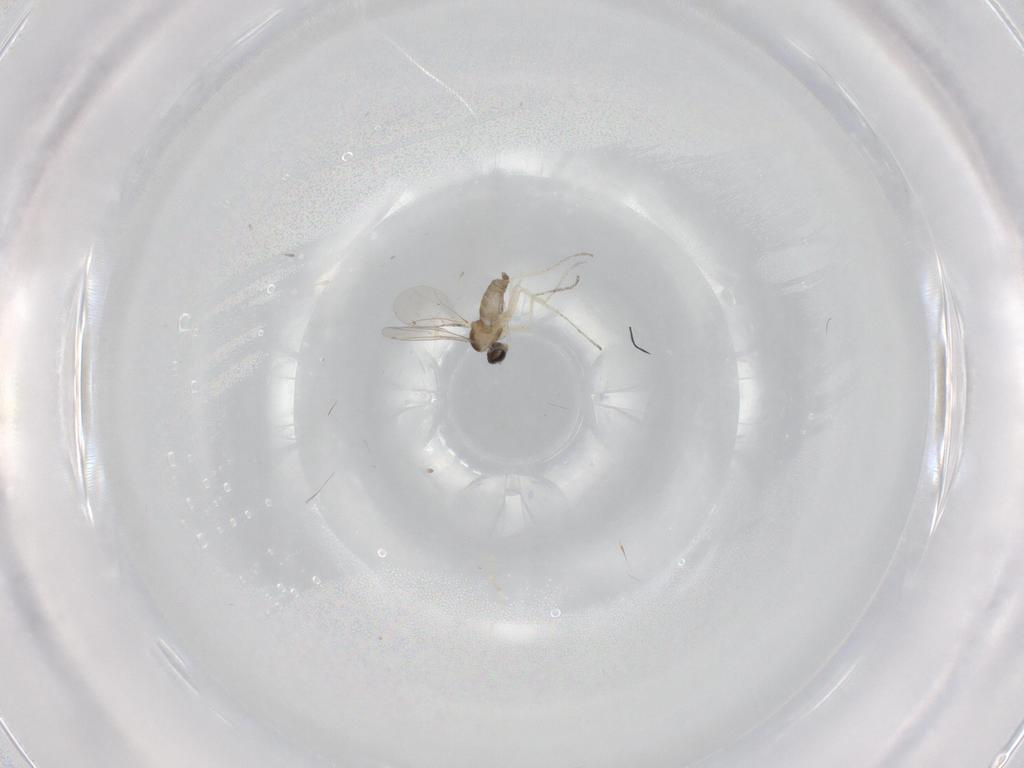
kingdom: Animalia
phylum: Arthropoda
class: Insecta
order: Diptera
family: Cecidomyiidae
